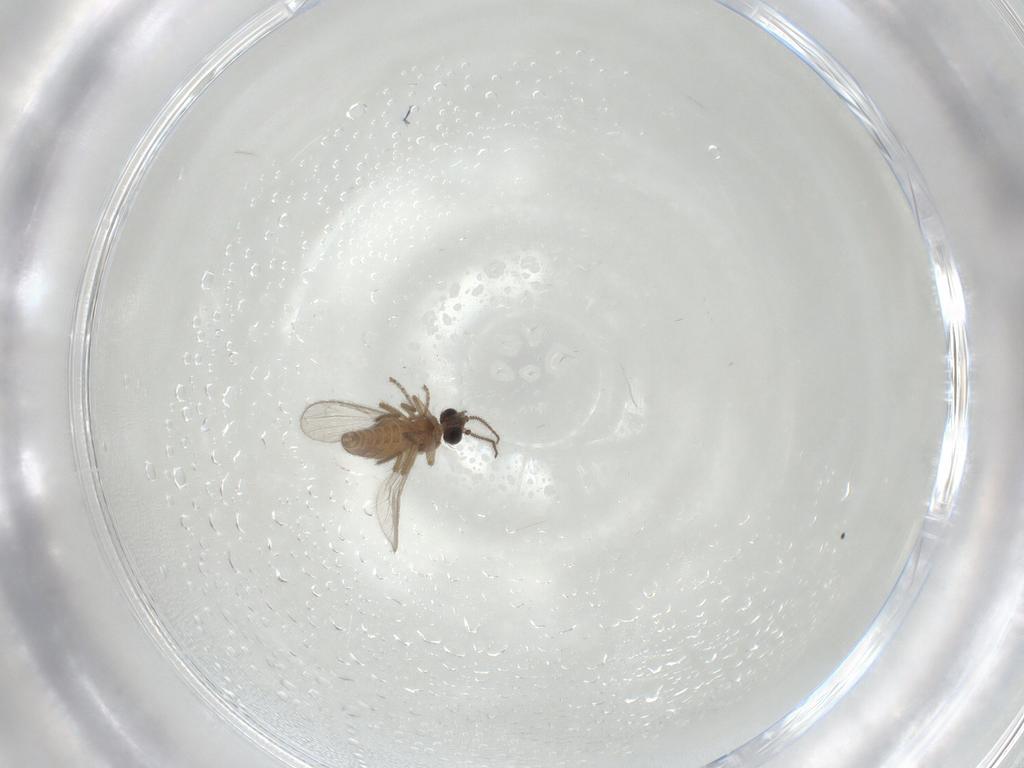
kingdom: Animalia
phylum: Arthropoda
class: Insecta
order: Diptera
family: Ceratopogonidae
